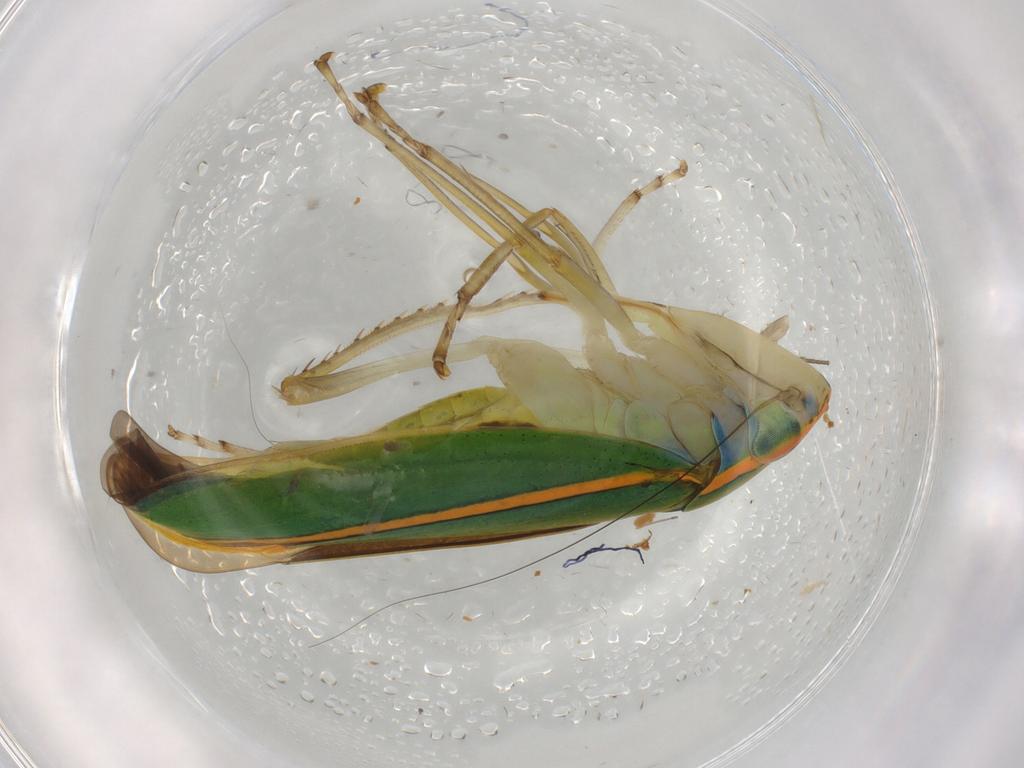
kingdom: Animalia
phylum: Arthropoda
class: Insecta
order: Hemiptera
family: Cicadellidae
